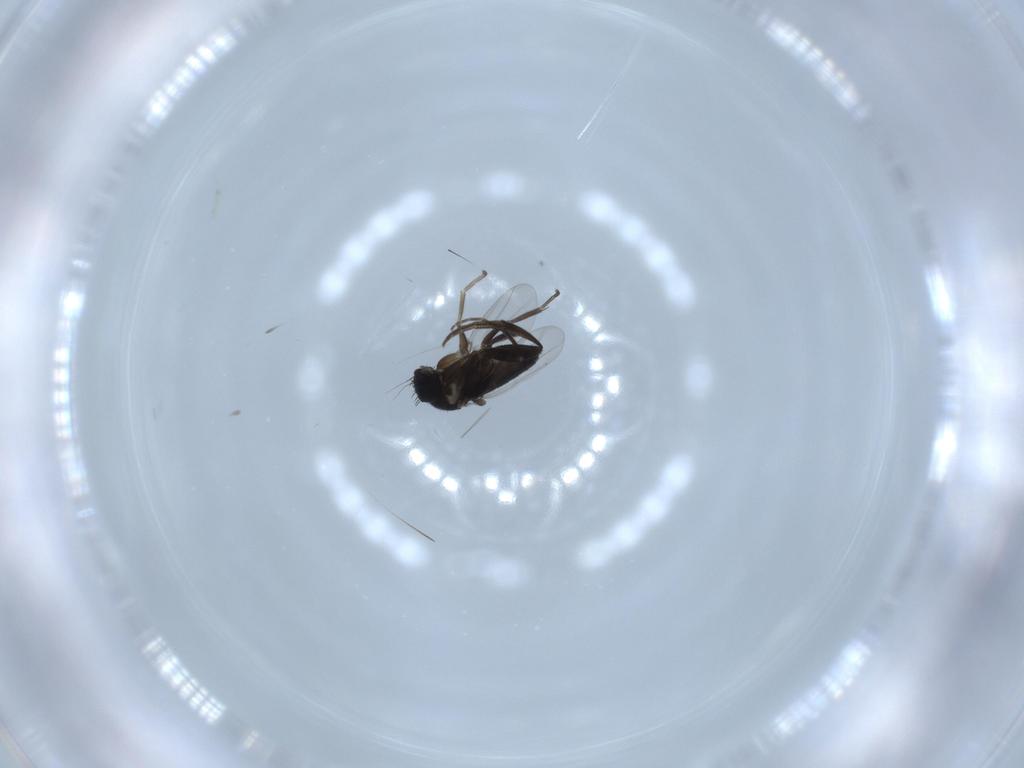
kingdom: Animalia
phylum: Arthropoda
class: Insecta
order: Diptera
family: Phoridae
